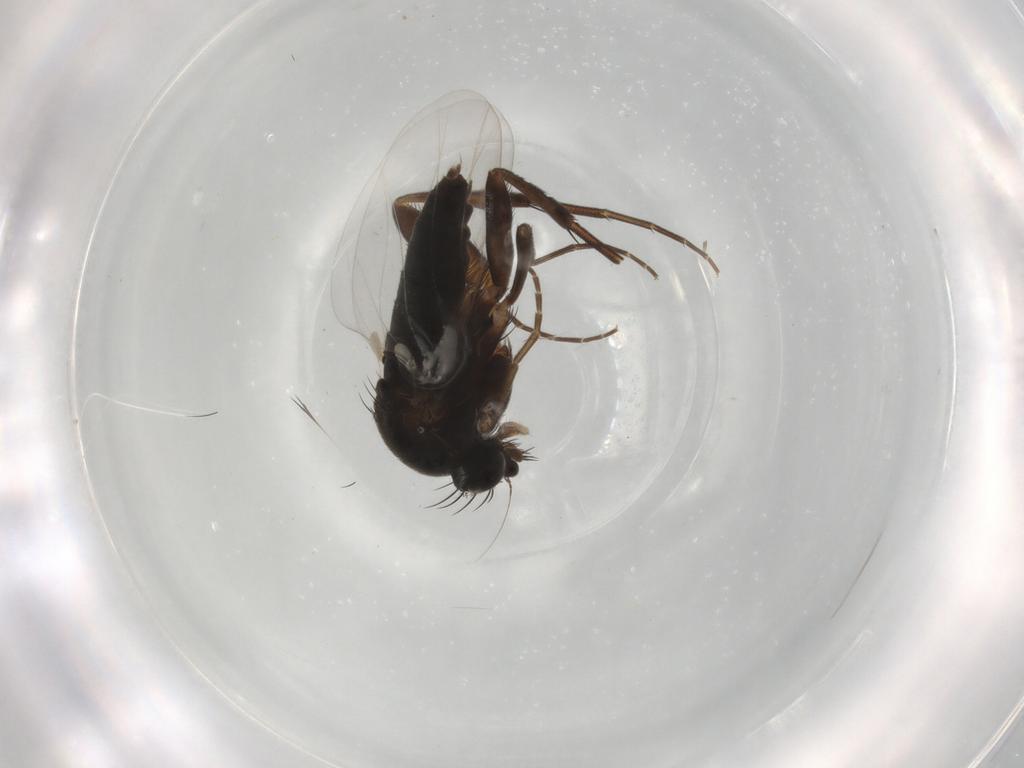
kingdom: Animalia
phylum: Arthropoda
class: Insecta
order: Diptera
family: Phoridae
